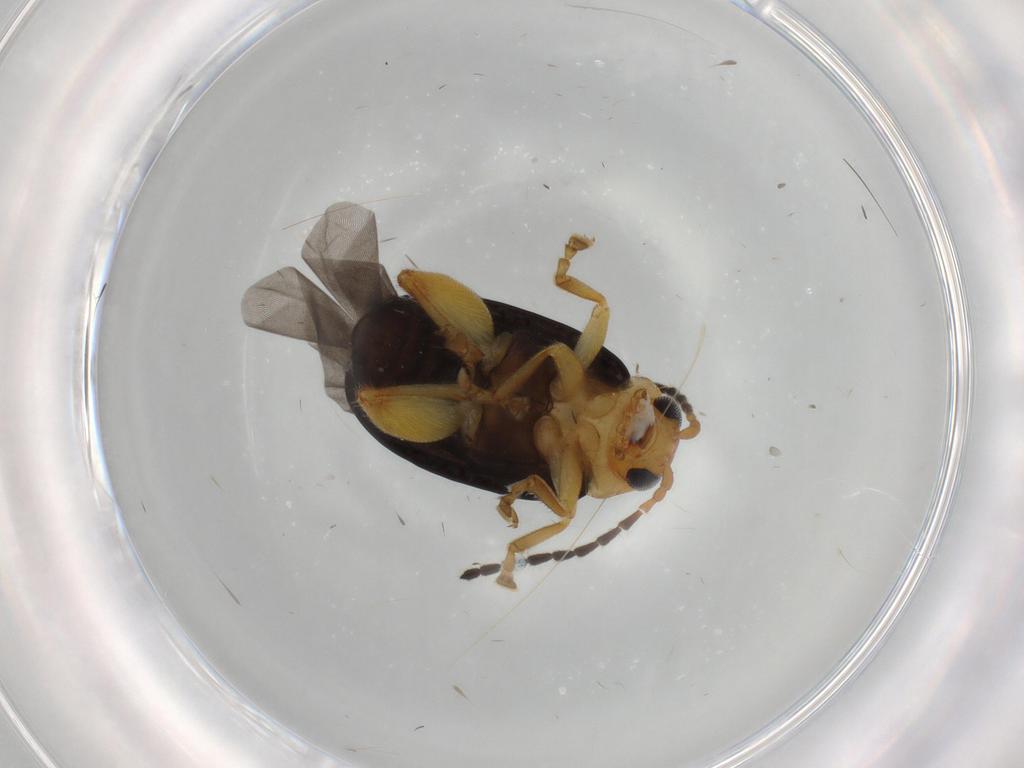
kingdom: Animalia
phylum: Arthropoda
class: Insecta
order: Coleoptera
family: Chrysomelidae
